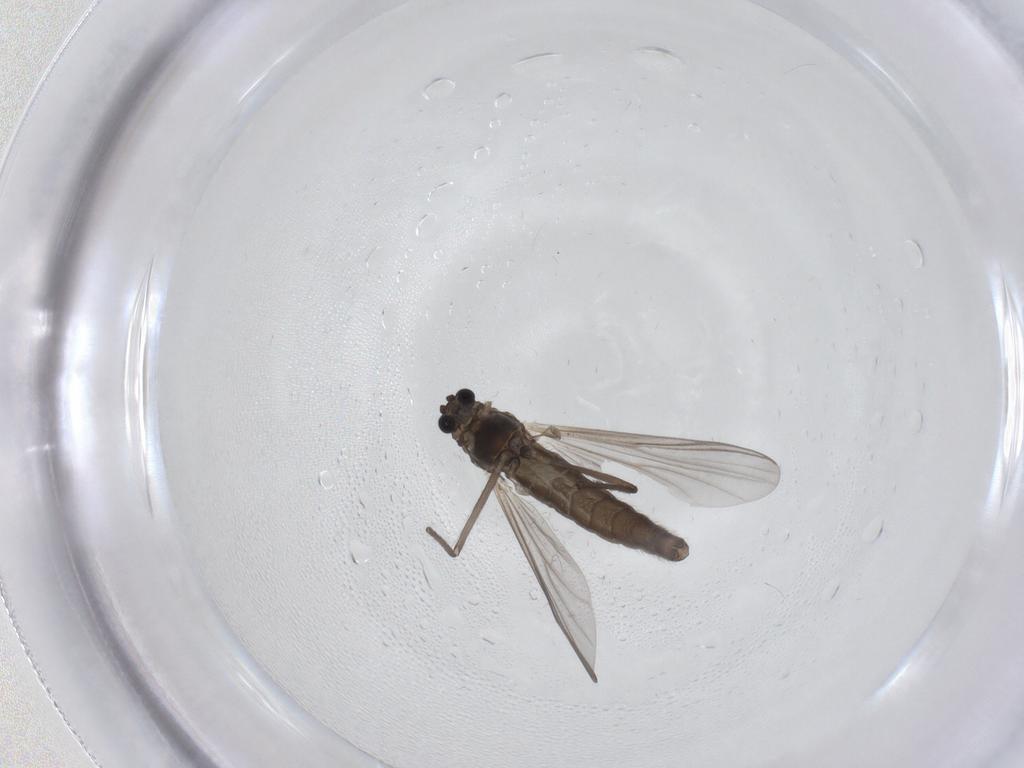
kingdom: Animalia
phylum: Arthropoda
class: Insecta
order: Diptera
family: Chironomidae
